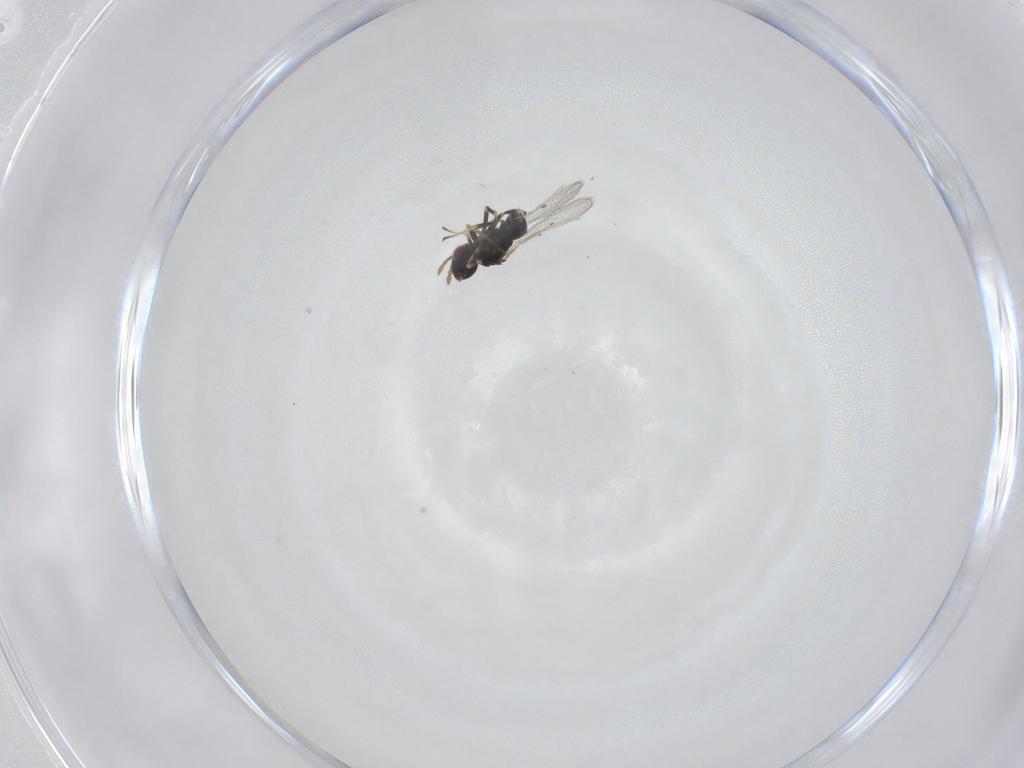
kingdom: Animalia
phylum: Arthropoda
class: Insecta
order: Hymenoptera
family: Eulophidae
